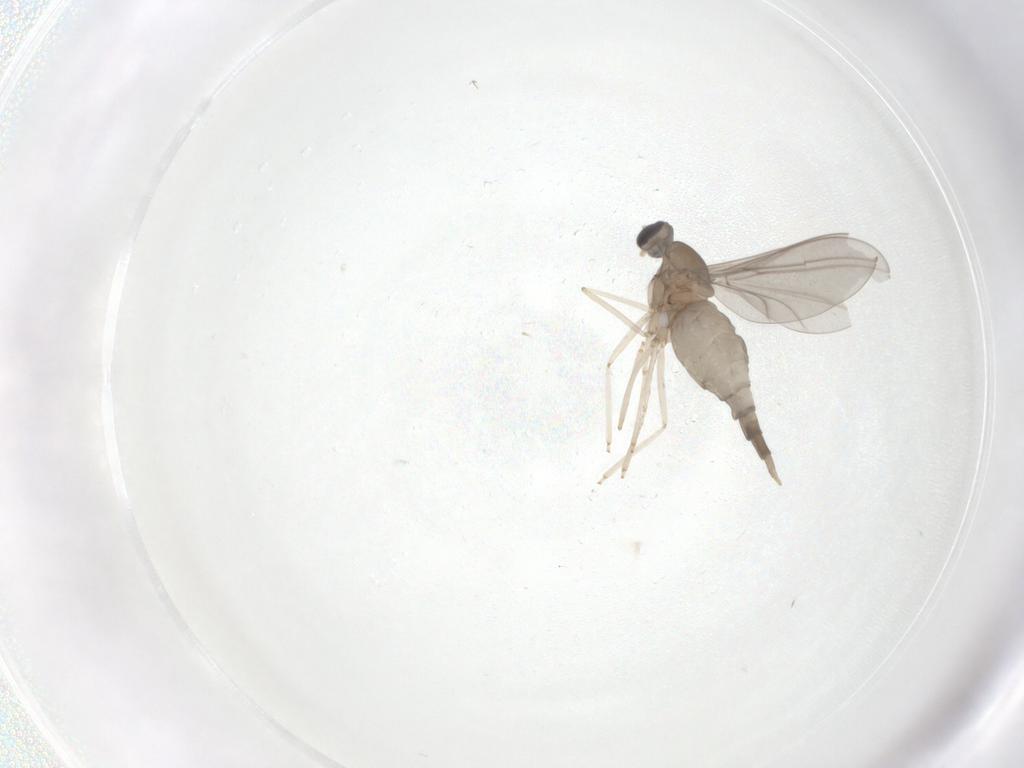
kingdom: Animalia
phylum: Arthropoda
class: Insecta
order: Diptera
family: Cecidomyiidae
